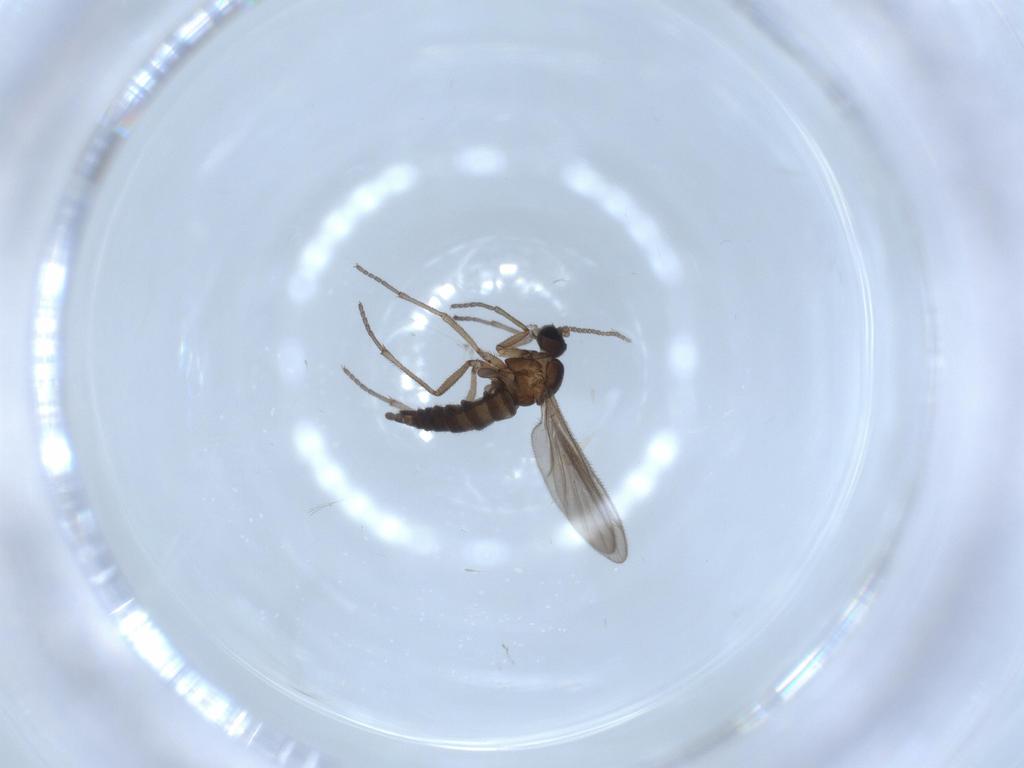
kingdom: Animalia
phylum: Arthropoda
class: Insecta
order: Diptera
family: Sciaridae
